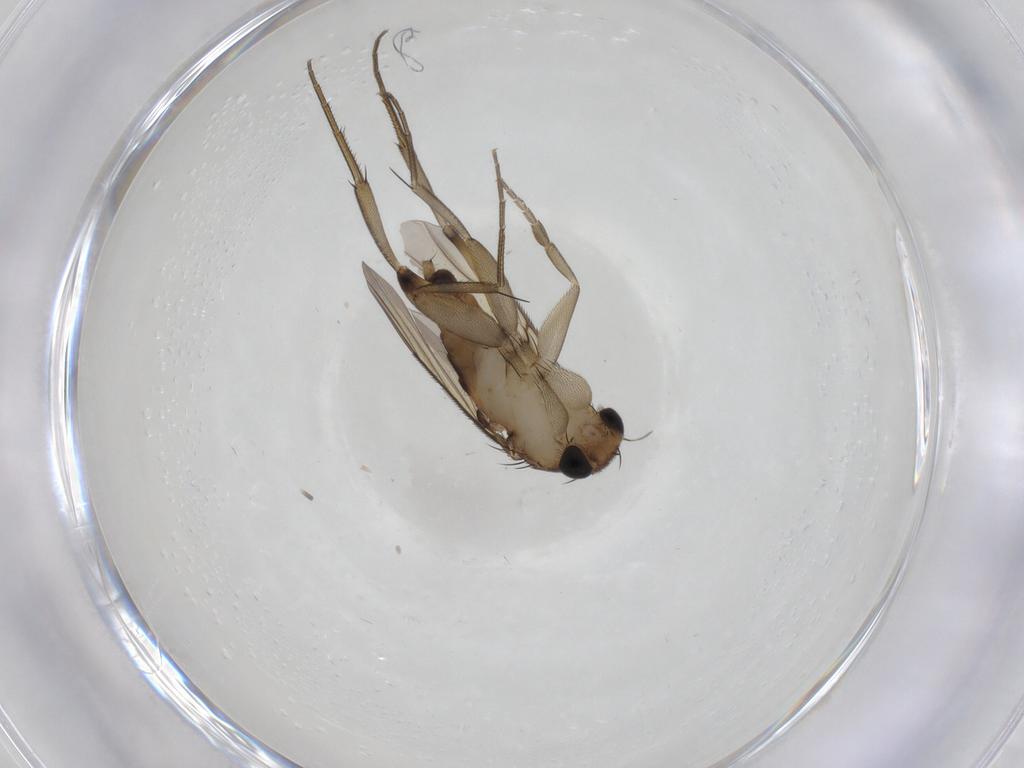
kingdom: Animalia
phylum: Arthropoda
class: Insecta
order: Diptera
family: Phoridae
